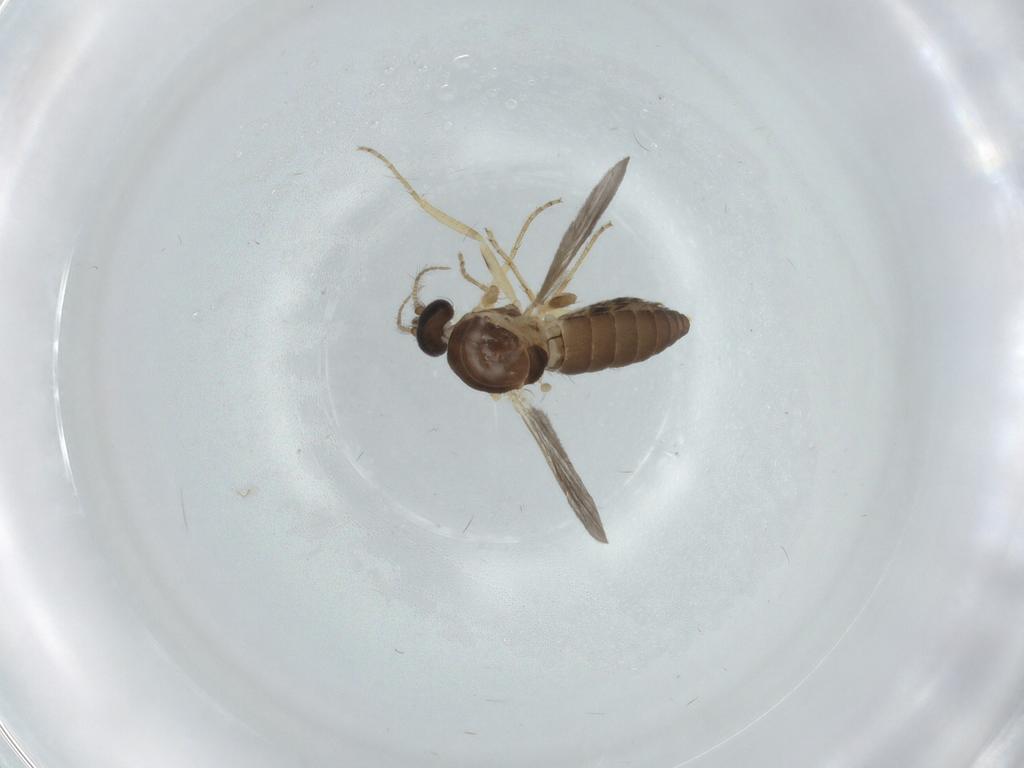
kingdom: Animalia
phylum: Arthropoda
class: Insecta
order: Diptera
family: Ceratopogonidae
